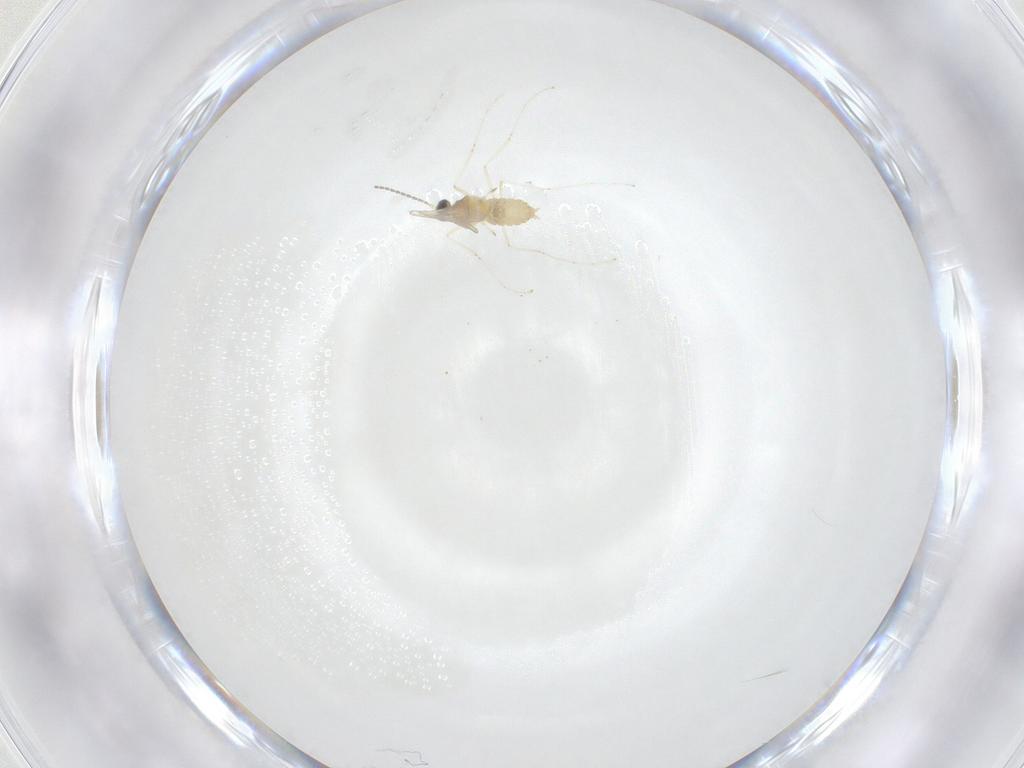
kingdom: Animalia
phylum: Arthropoda
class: Insecta
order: Diptera
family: Cecidomyiidae
